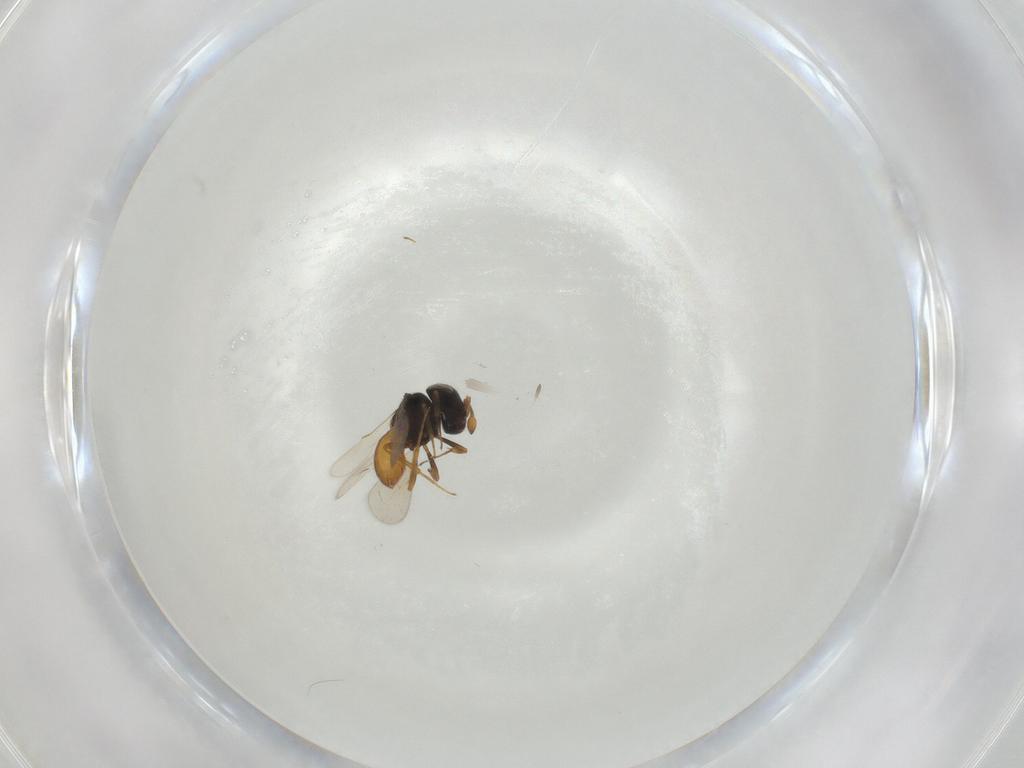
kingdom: Animalia
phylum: Arthropoda
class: Insecta
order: Hymenoptera
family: Scelionidae
